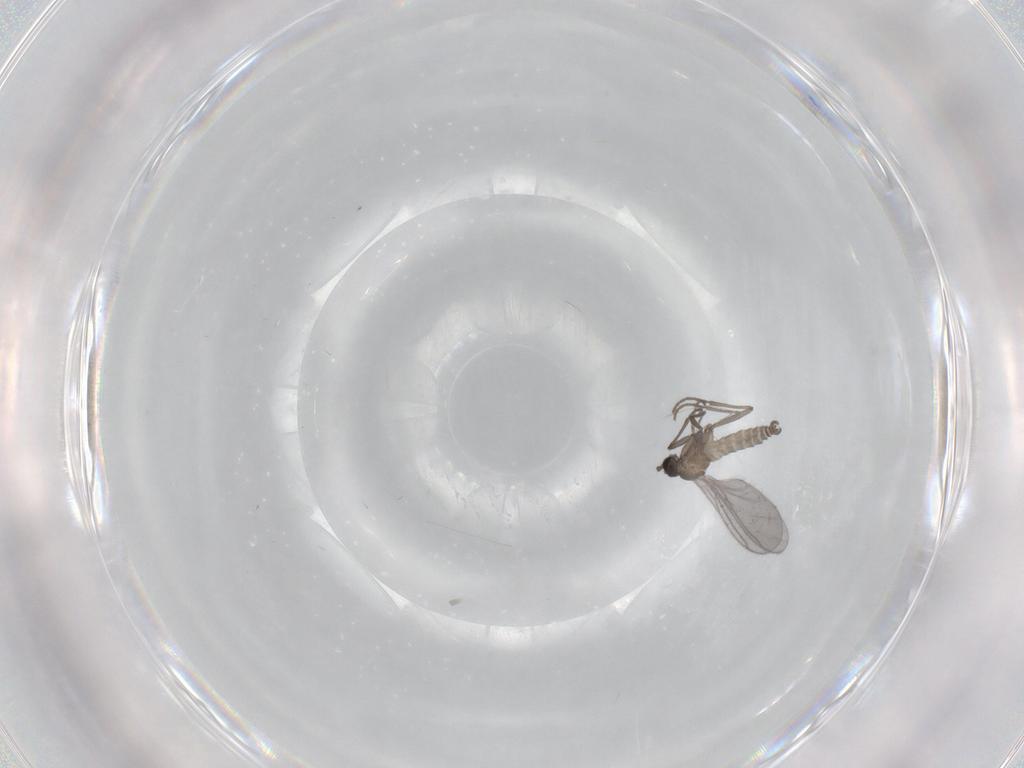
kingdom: Animalia
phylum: Arthropoda
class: Insecta
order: Diptera
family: Sciaridae
